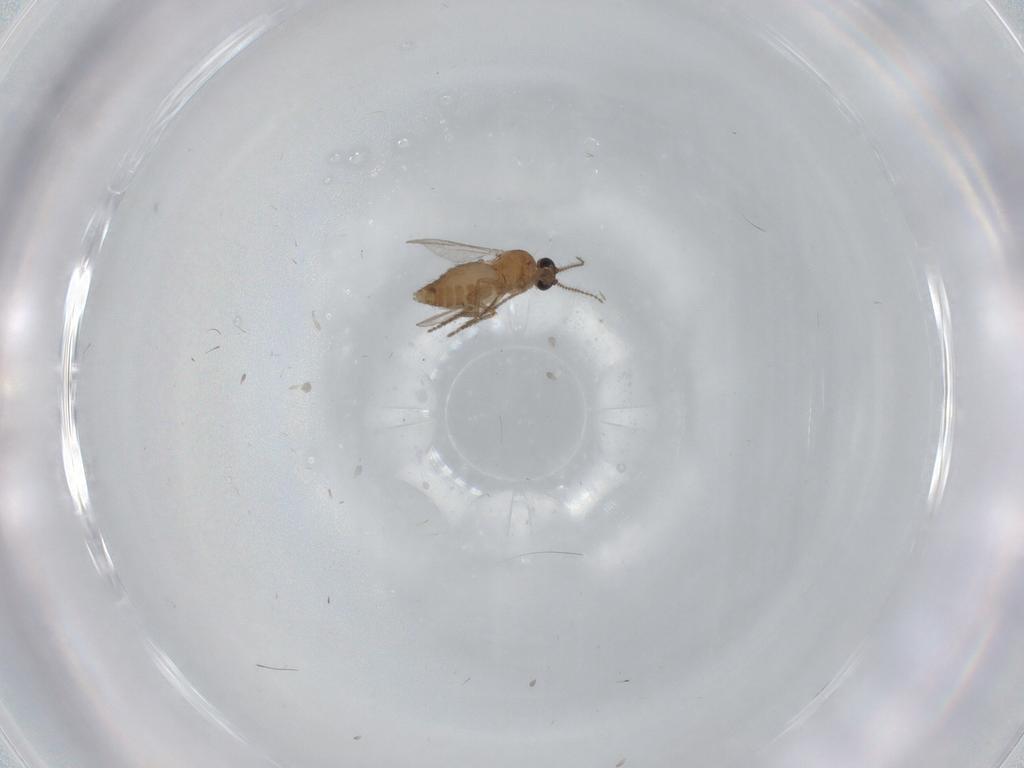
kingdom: Animalia
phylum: Arthropoda
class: Insecta
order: Diptera
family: Ceratopogonidae
